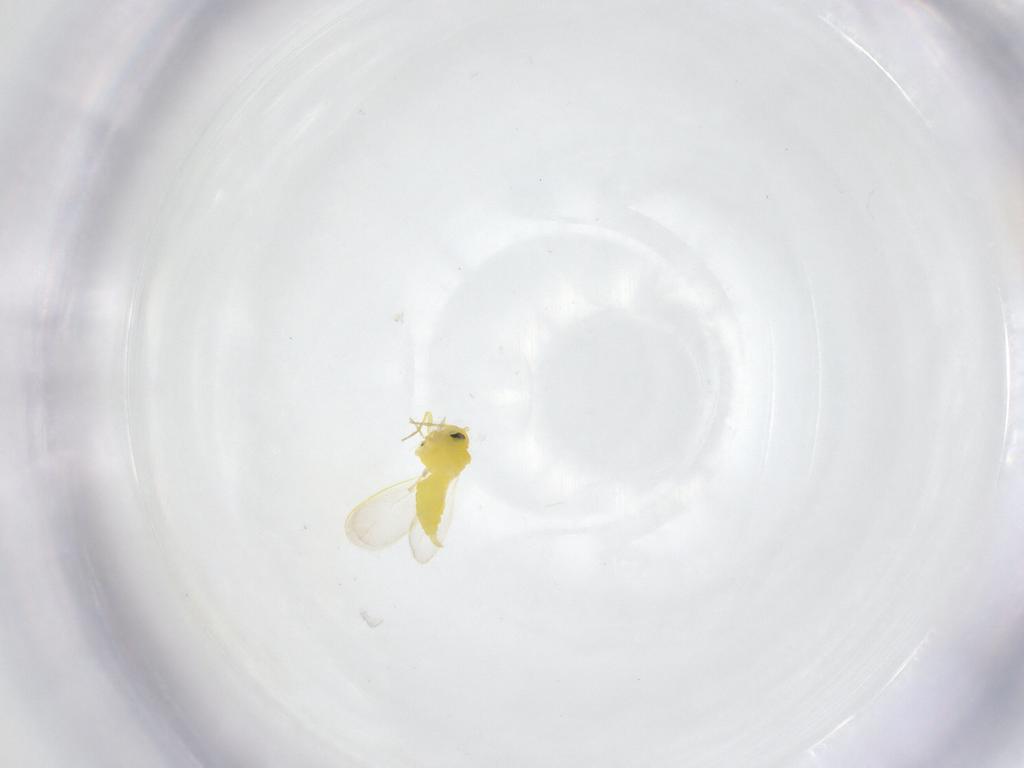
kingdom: Animalia
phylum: Arthropoda
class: Insecta
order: Hemiptera
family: Aleyrodidae
